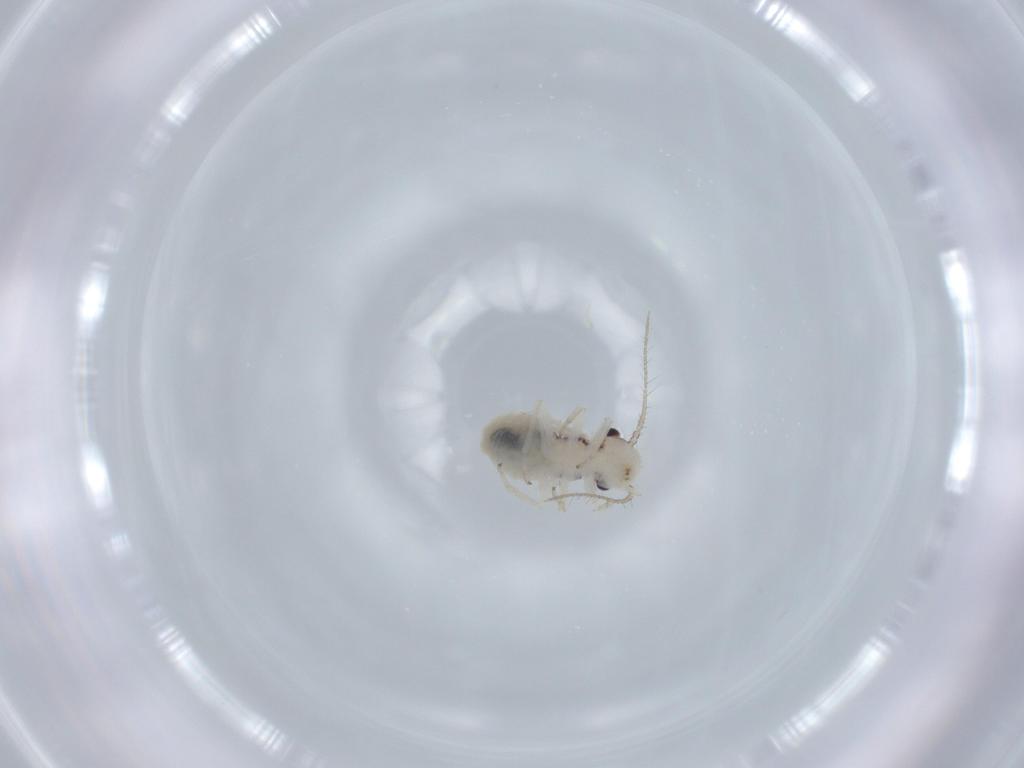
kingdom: Animalia
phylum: Arthropoda
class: Insecta
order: Psocodea
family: Pseudocaeciliidae
